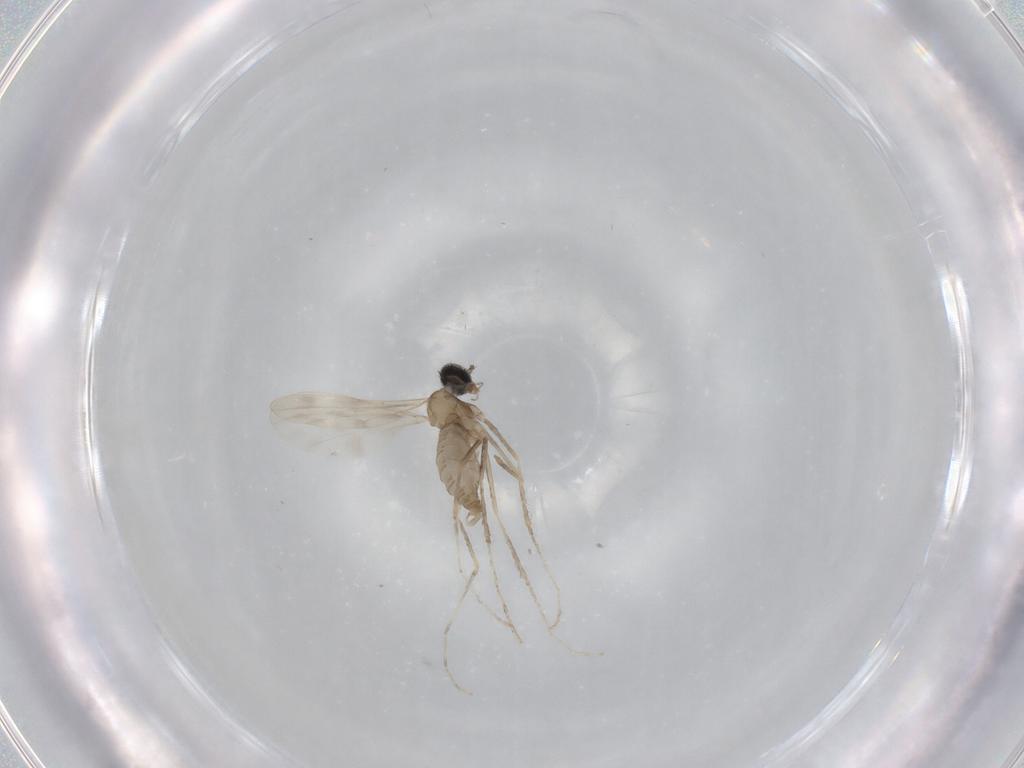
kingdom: Animalia
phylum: Arthropoda
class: Insecta
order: Diptera
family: Cecidomyiidae
